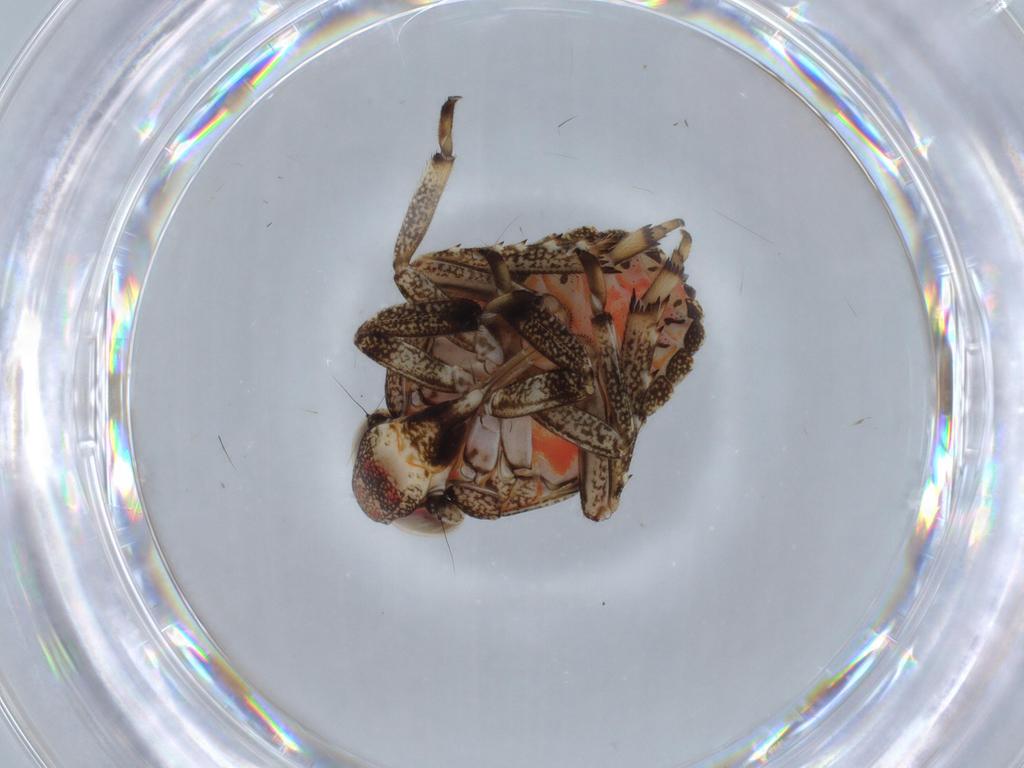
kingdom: Animalia
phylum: Arthropoda
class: Insecta
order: Hemiptera
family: Issidae
